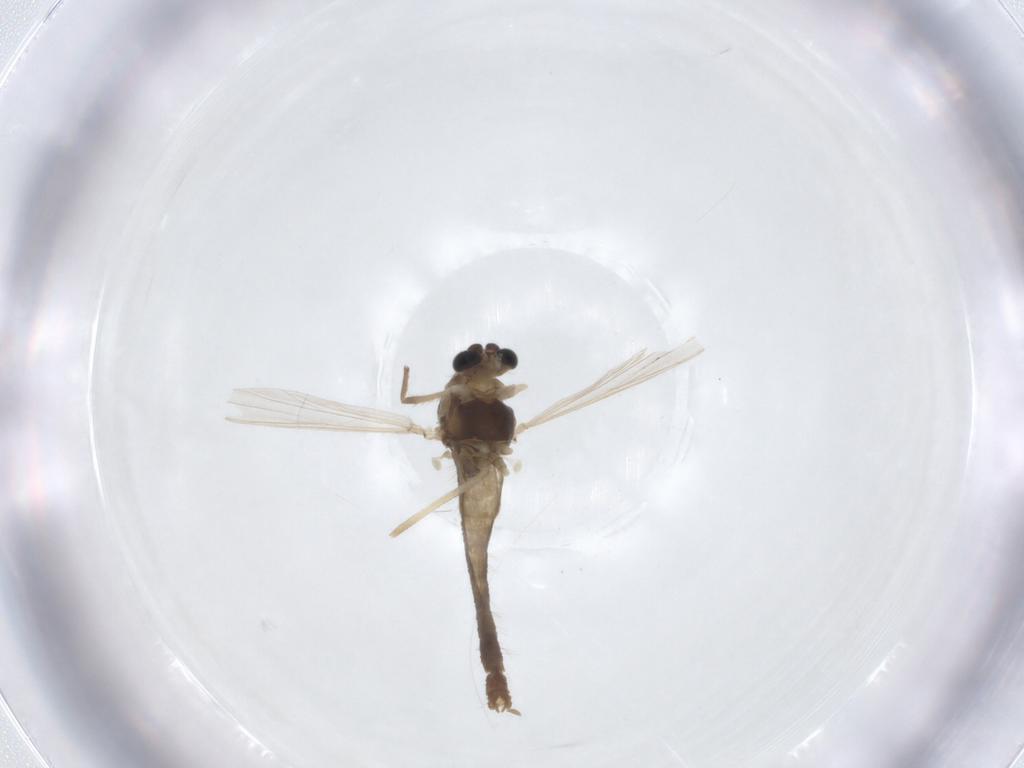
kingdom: Animalia
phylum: Arthropoda
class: Insecta
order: Diptera
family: Chironomidae
